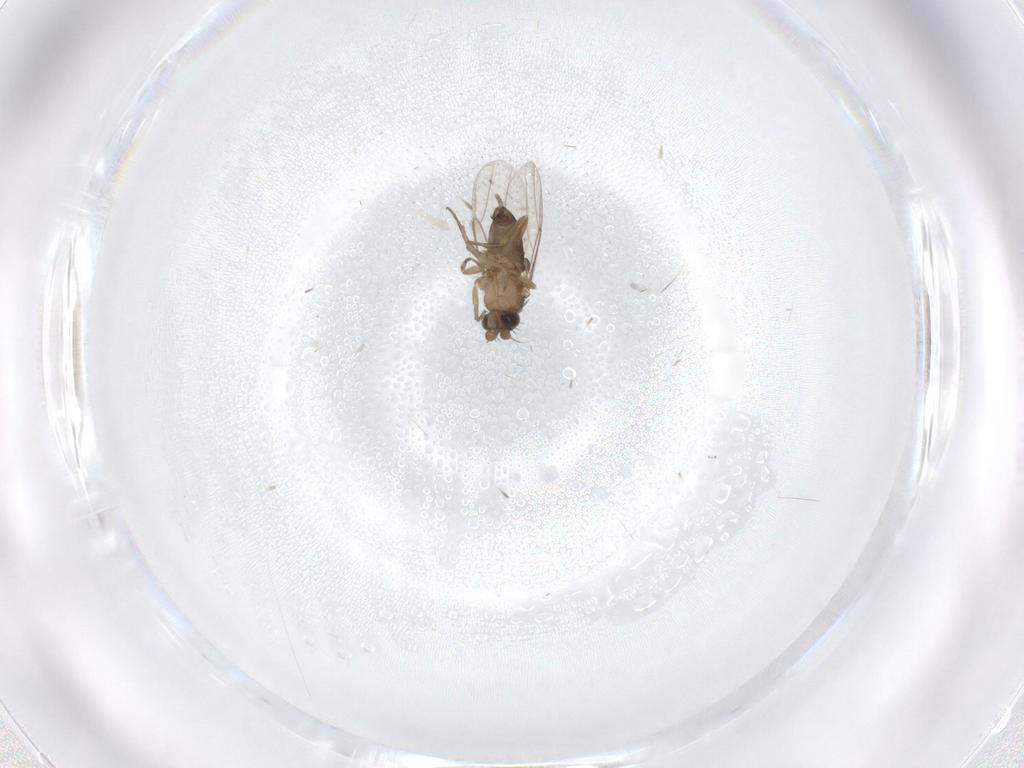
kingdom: Animalia
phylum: Arthropoda
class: Insecta
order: Diptera
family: Phoridae
